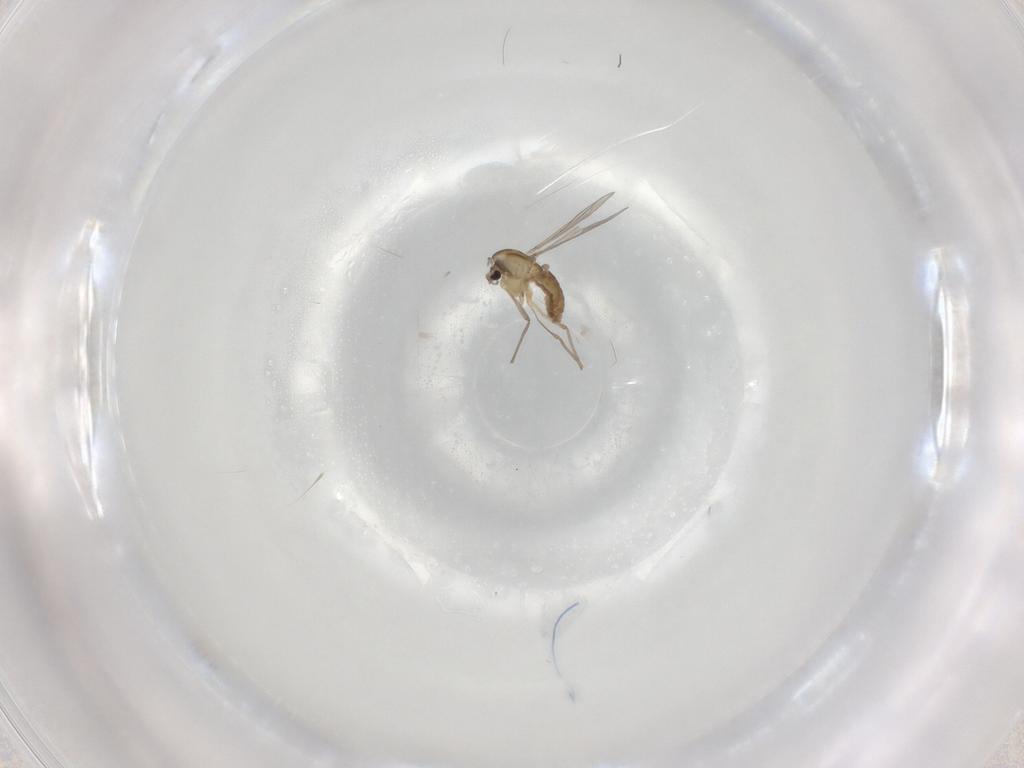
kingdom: Animalia
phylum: Arthropoda
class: Insecta
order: Diptera
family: Chironomidae
